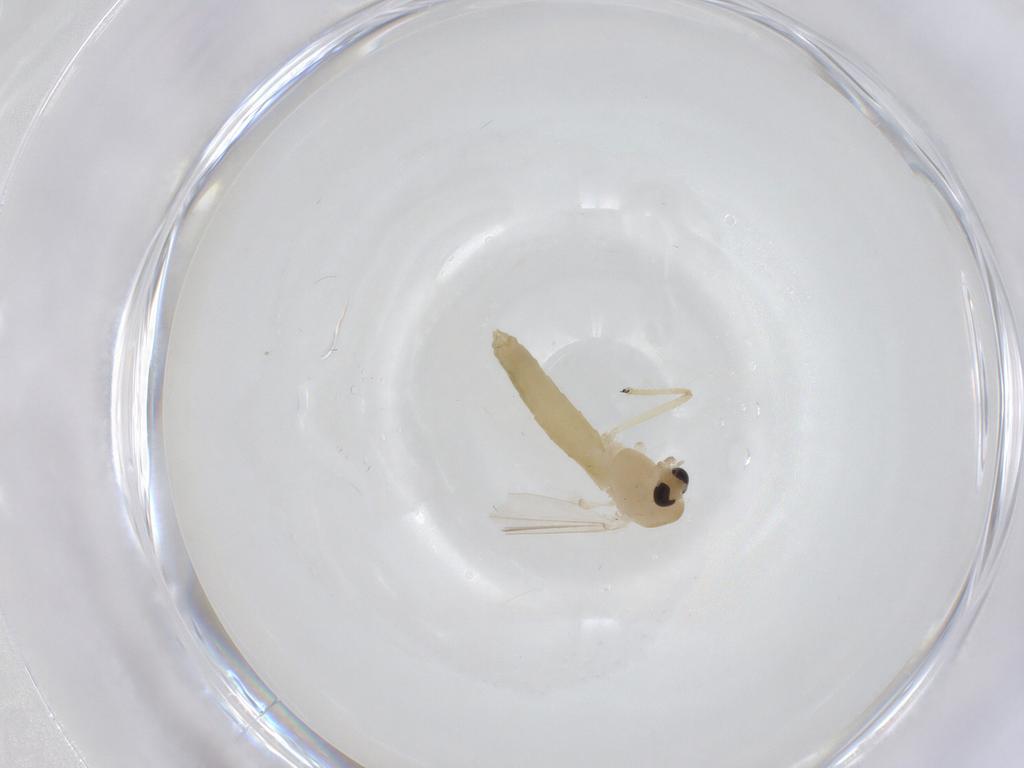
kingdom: Animalia
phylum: Arthropoda
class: Insecta
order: Diptera
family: Chironomidae
